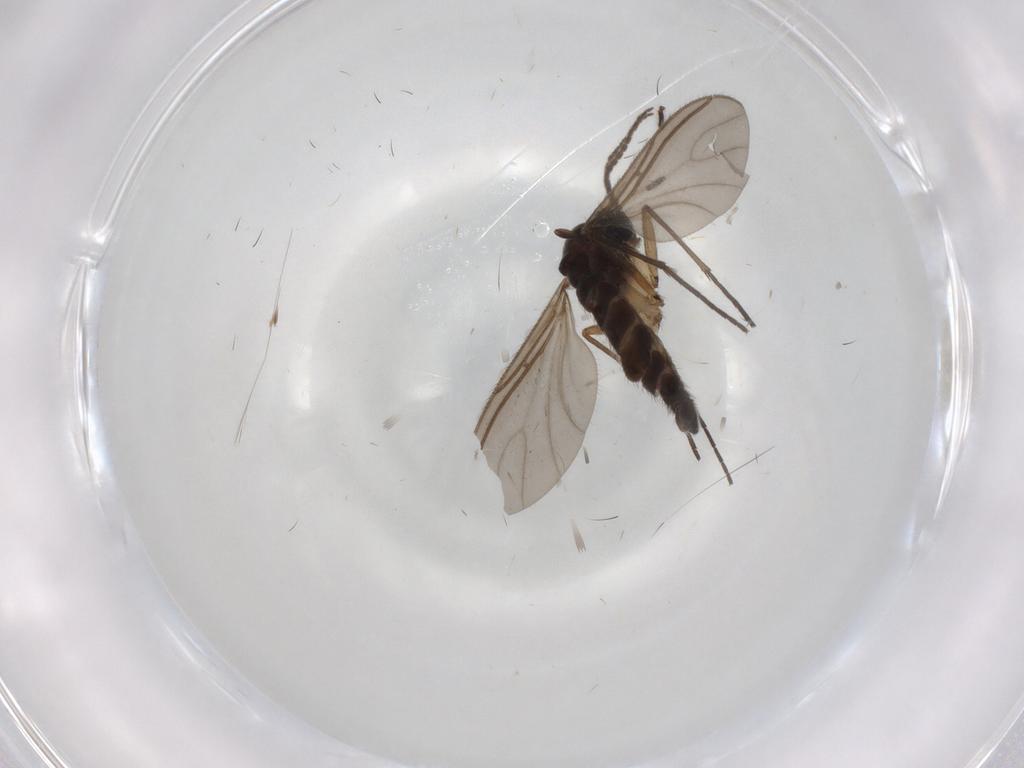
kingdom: Animalia
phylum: Arthropoda
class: Insecta
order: Diptera
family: Sciaridae
